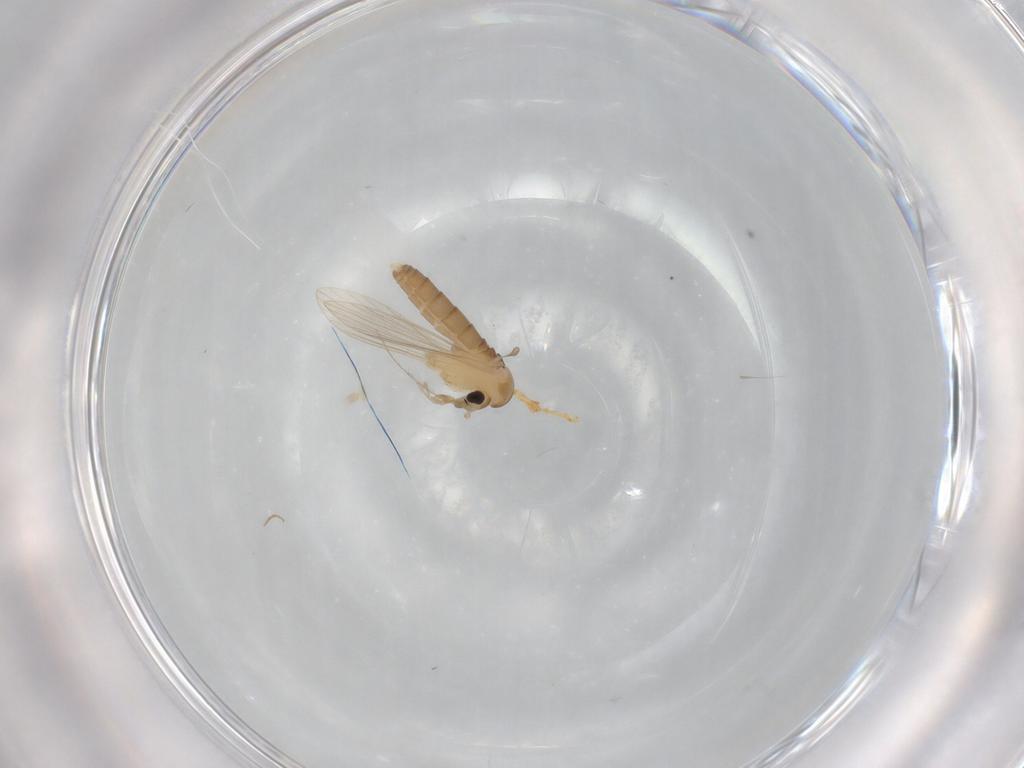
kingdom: Animalia
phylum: Arthropoda
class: Insecta
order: Diptera
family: Psychodidae
